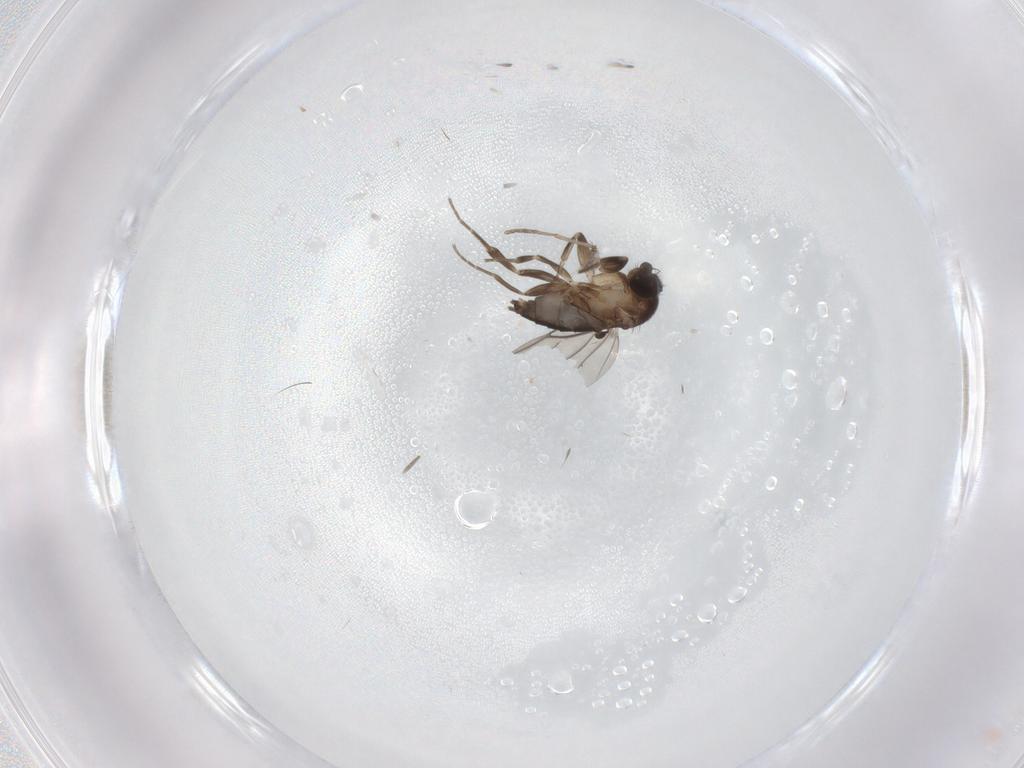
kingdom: Animalia
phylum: Arthropoda
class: Insecta
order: Diptera
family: Phoridae
